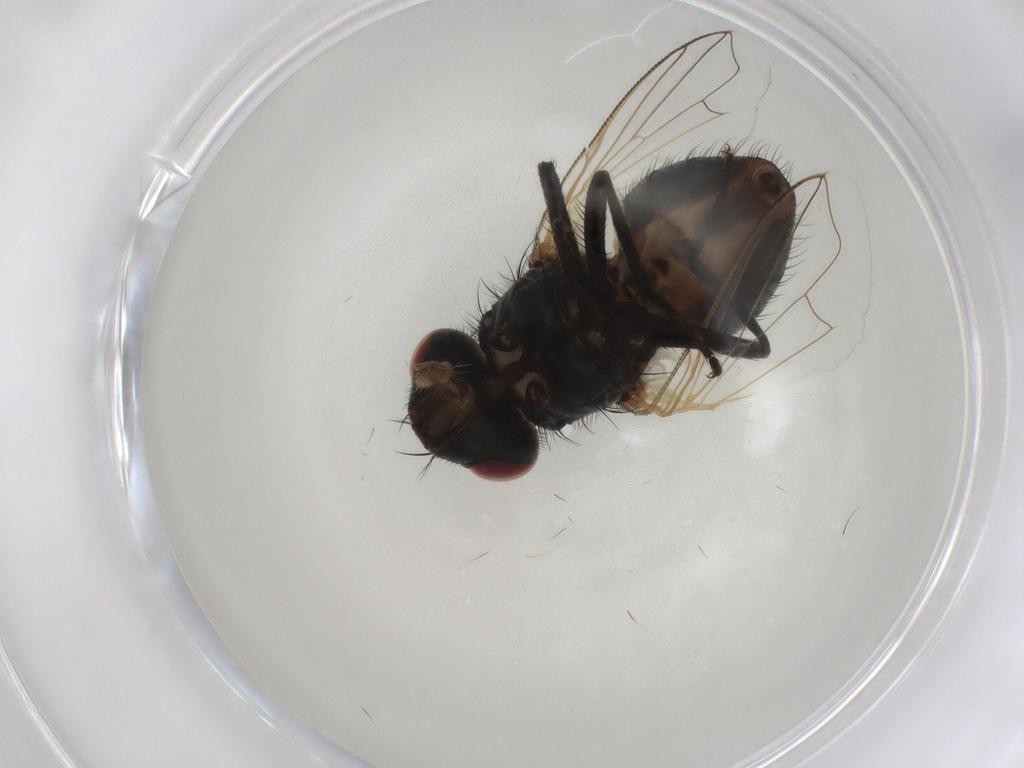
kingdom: Animalia
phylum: Arthropoda
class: Insecta
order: Diptera
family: Muscidae
